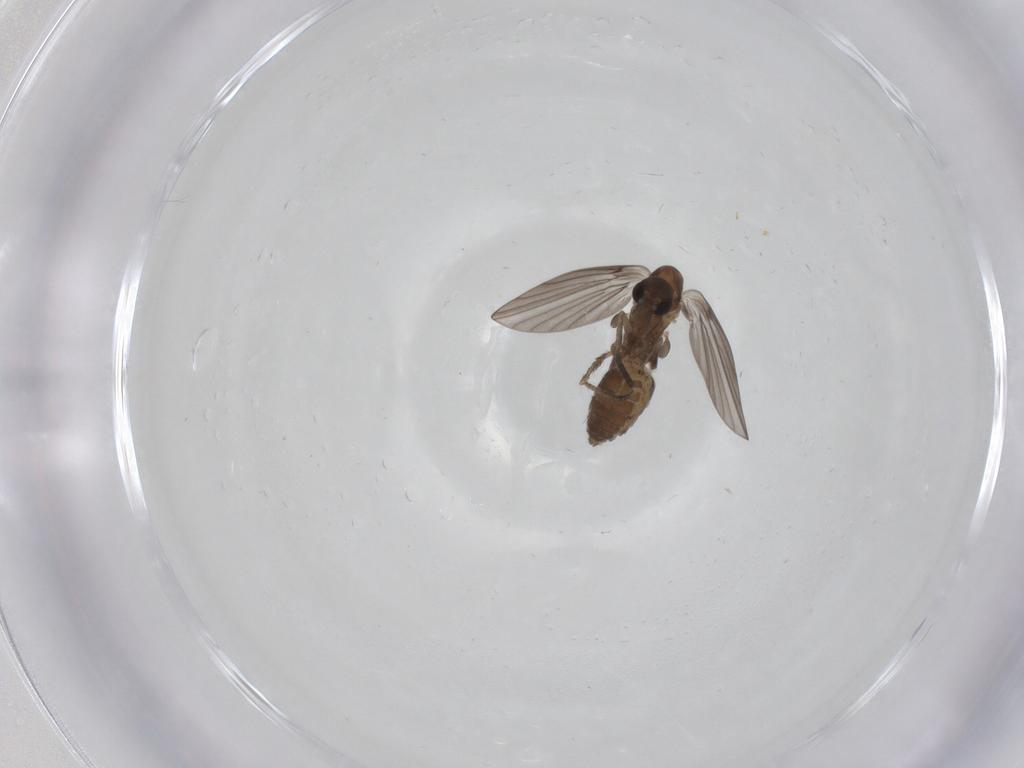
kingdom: Animalia
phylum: Arthropoda
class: Insecta
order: Diptera
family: Psychodidae
